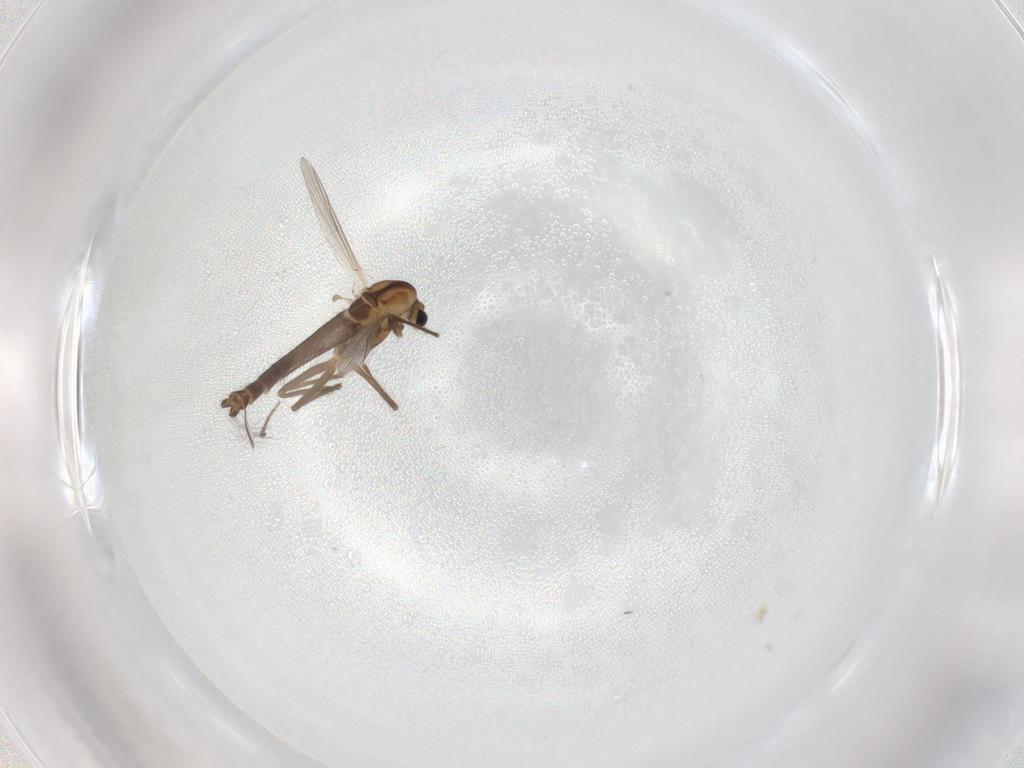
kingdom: Animalia
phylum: Arthropoda
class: Insecta
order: Diptera
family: Chironomidae
